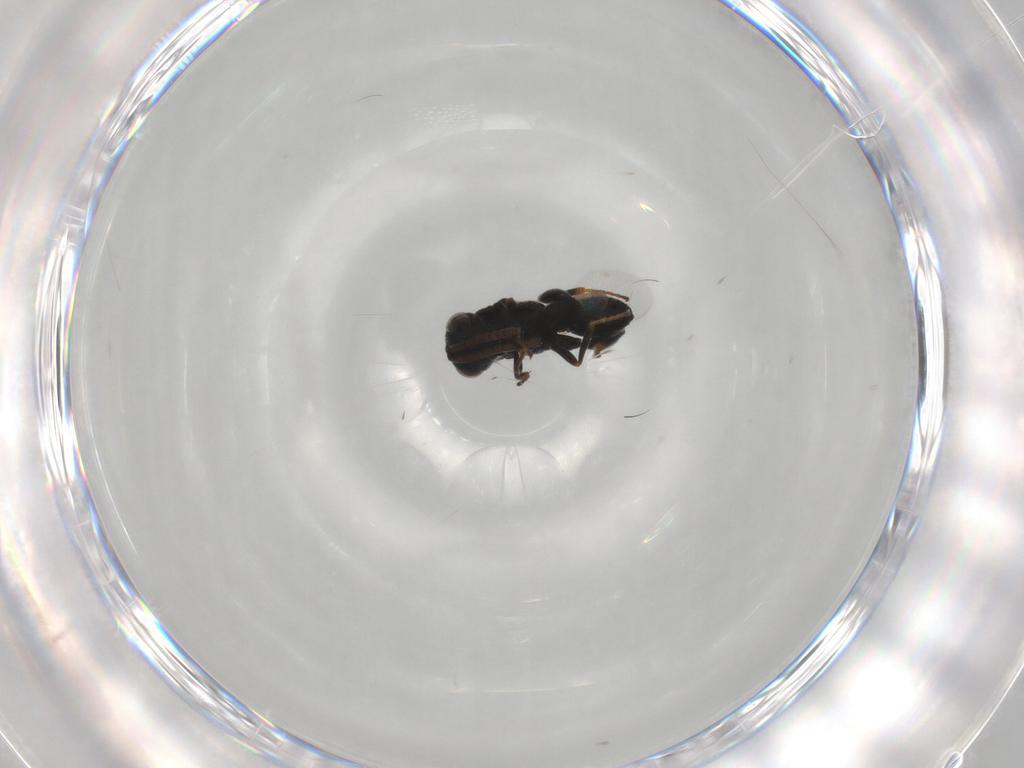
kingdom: Animalia
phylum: Arthropoda
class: Insecta
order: Hymenoptera
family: Chalcididae
